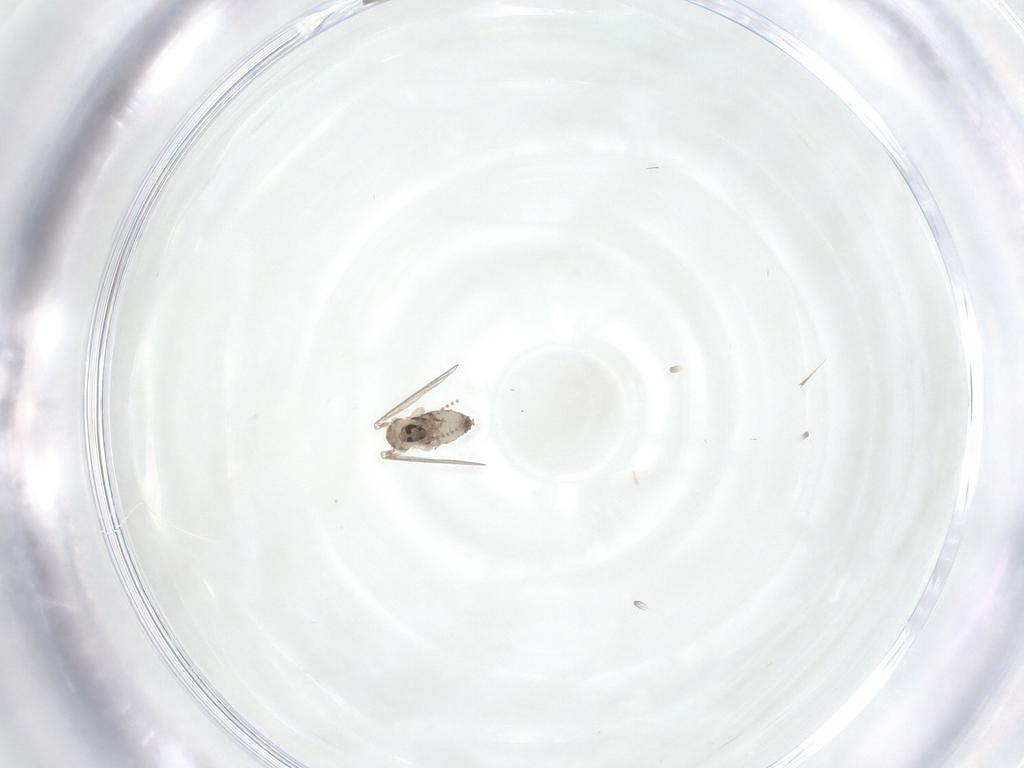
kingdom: Animalia
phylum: Arthropoda
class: Insecta
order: Diptera
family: Psychodidae
